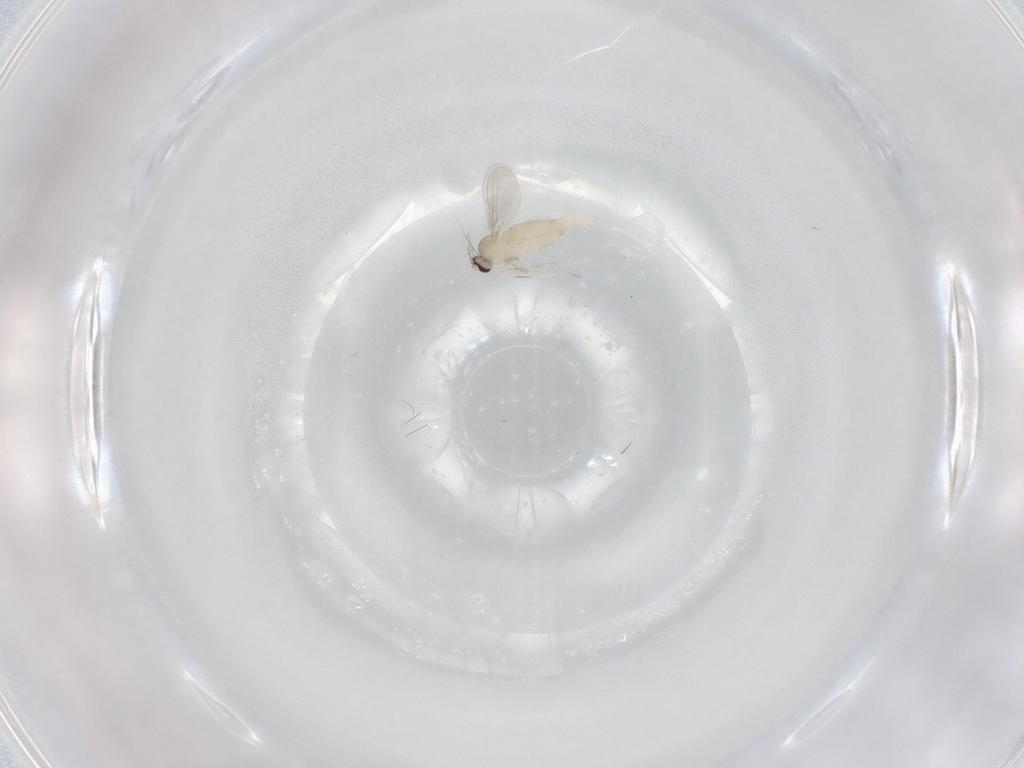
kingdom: Animalia
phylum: Arthropoda
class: Insecta
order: Diptera
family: Cecidomyiidae
